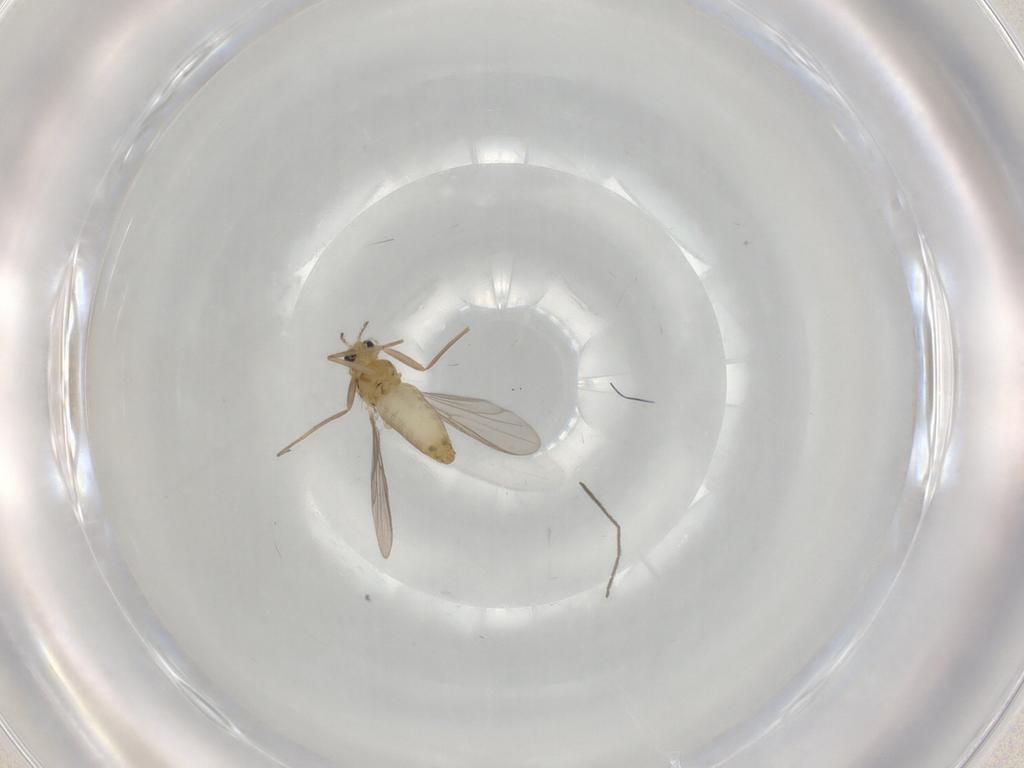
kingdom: Animalia
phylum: Arthropoda
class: Insecta
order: Diptera
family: Chironomidae
